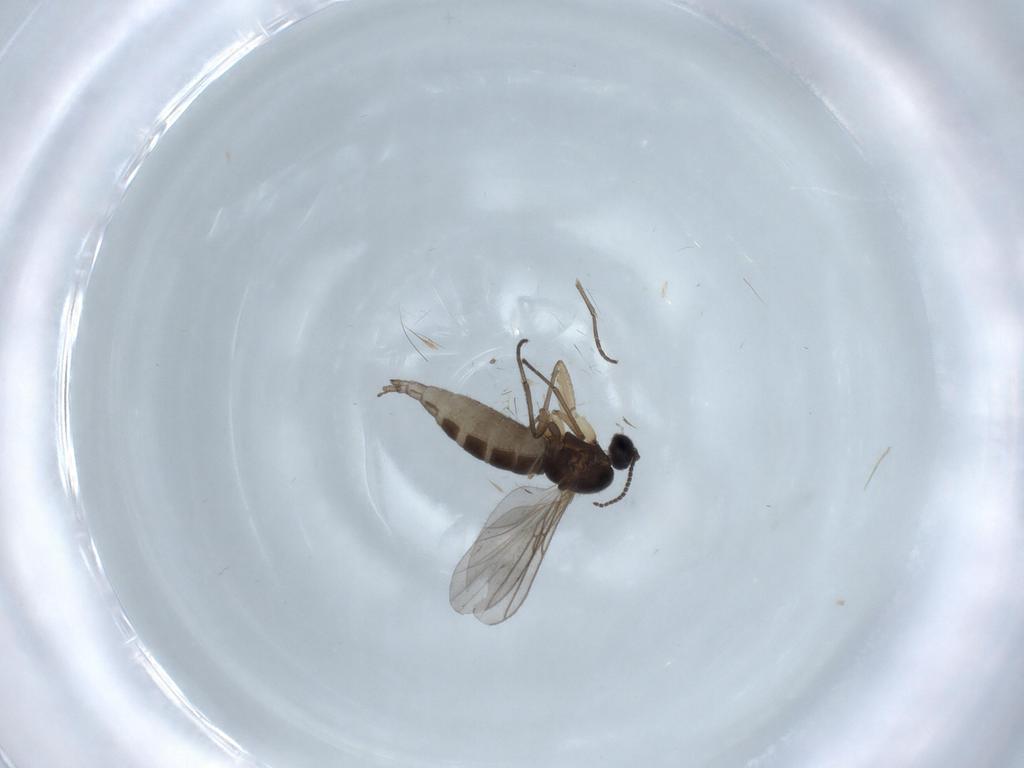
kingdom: Animalia
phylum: Arthropoda
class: Insecta
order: Diptera
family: Sciaridae
